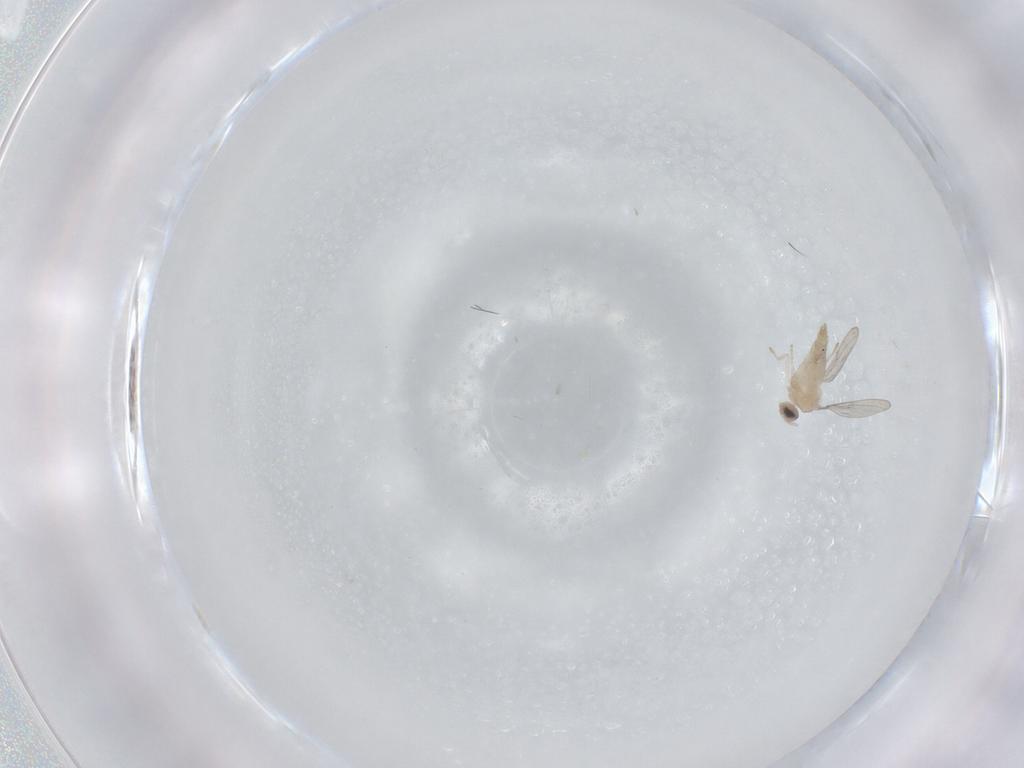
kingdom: Animalia
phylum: Arthropoda
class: Insecta
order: Diptera
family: Cecidomyiidae
